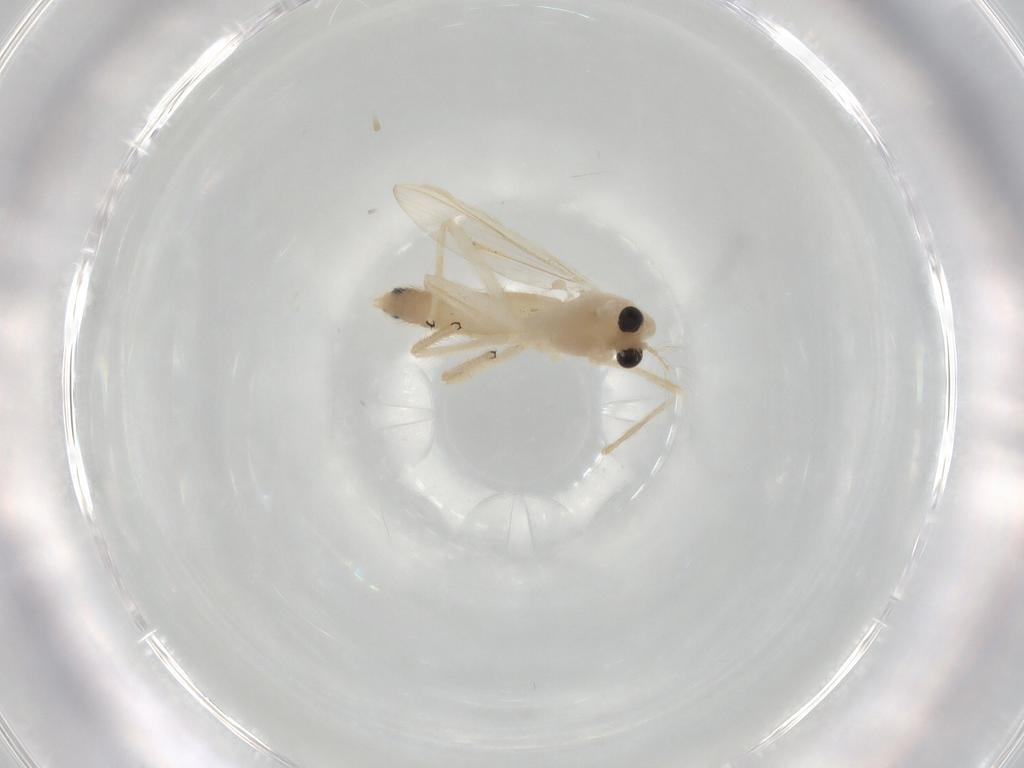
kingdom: Animalia
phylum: Arthropoda
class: Insecta
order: Diptera
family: Chironomidae
